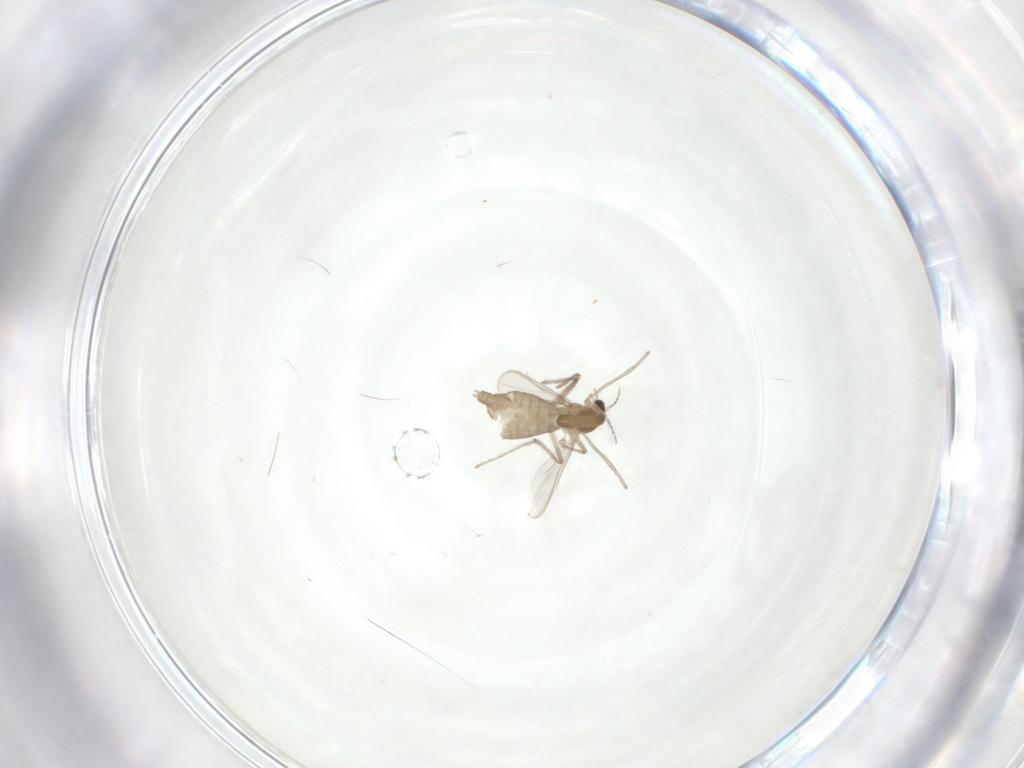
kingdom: Animalia
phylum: Arthropoda
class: Insecta
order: Diptera
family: Chironomidae
